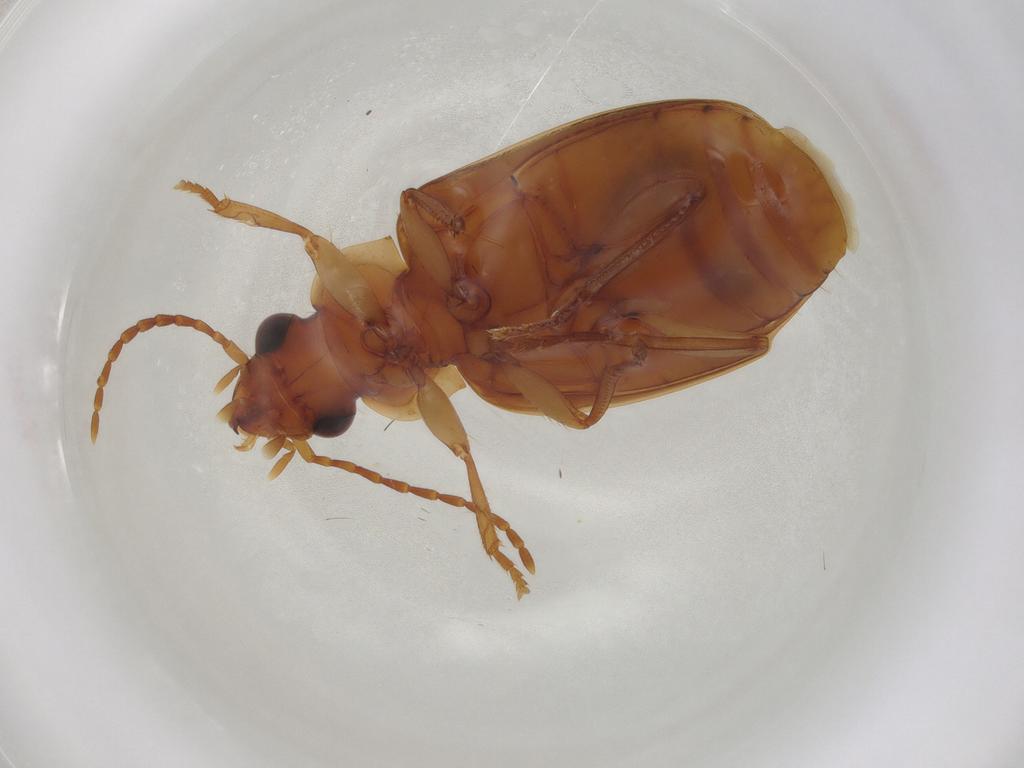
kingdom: Animalia
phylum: Arthropoda
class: Insecta
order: Coleoptera
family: Carabidae
